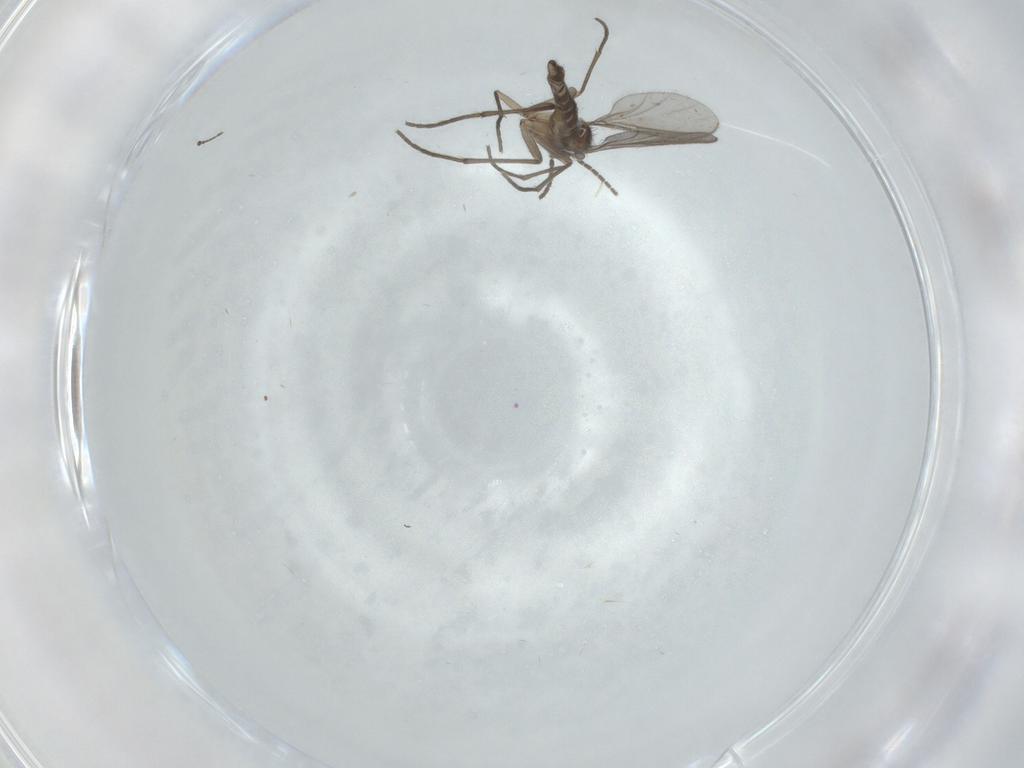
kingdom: Animalia
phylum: Arthropoda
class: Insecta
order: Diptera
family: Sciaridae
